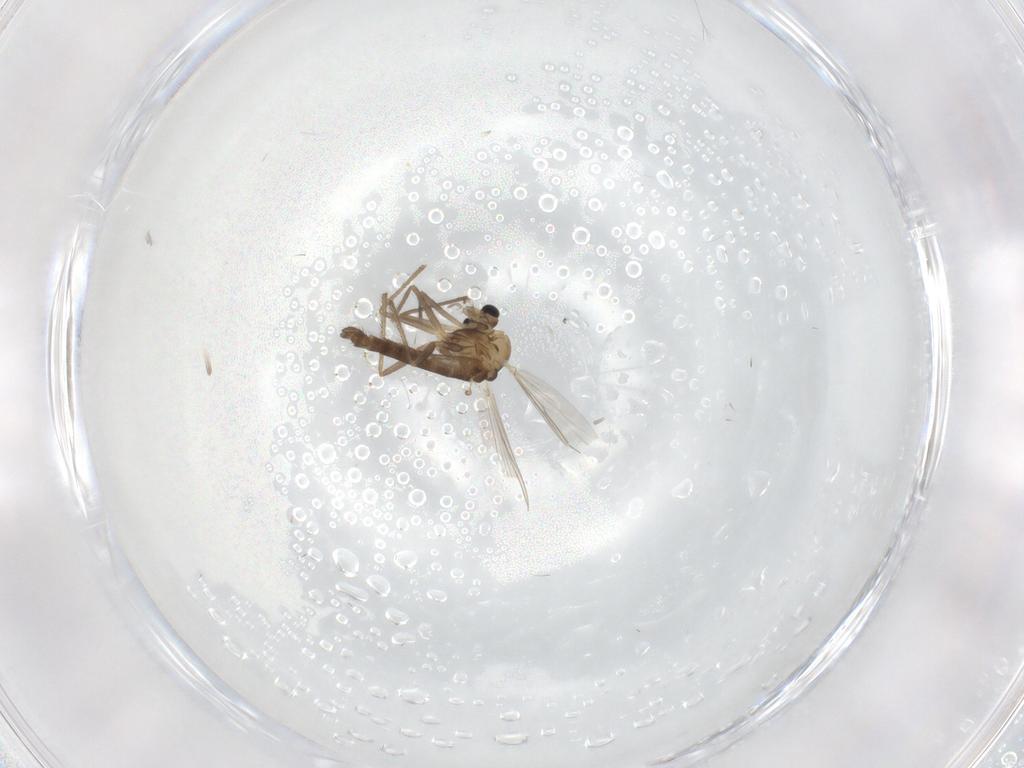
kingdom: Animalia
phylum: Arthropoda
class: Insecta
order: Diptera
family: Chironomidae
